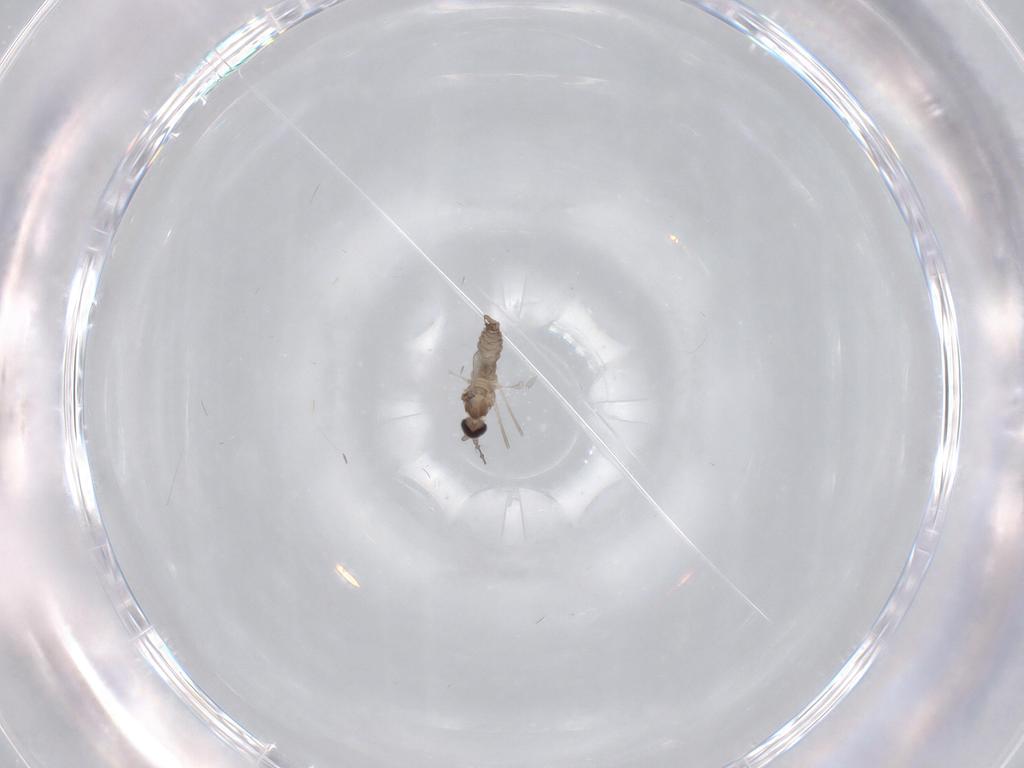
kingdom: Animalia
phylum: Arthropoda
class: Insecta
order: Diptera
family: Cecidomyiidae
